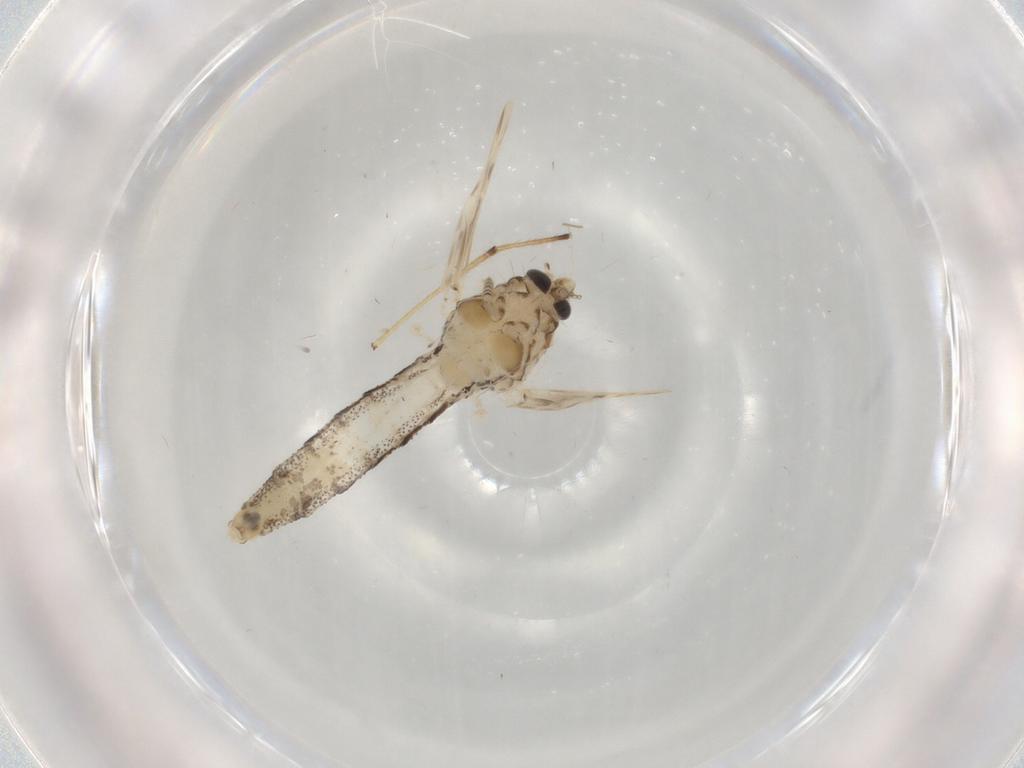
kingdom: Animalia
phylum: Arthropoda
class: Insecta
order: Diptera
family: Chaoboridae
